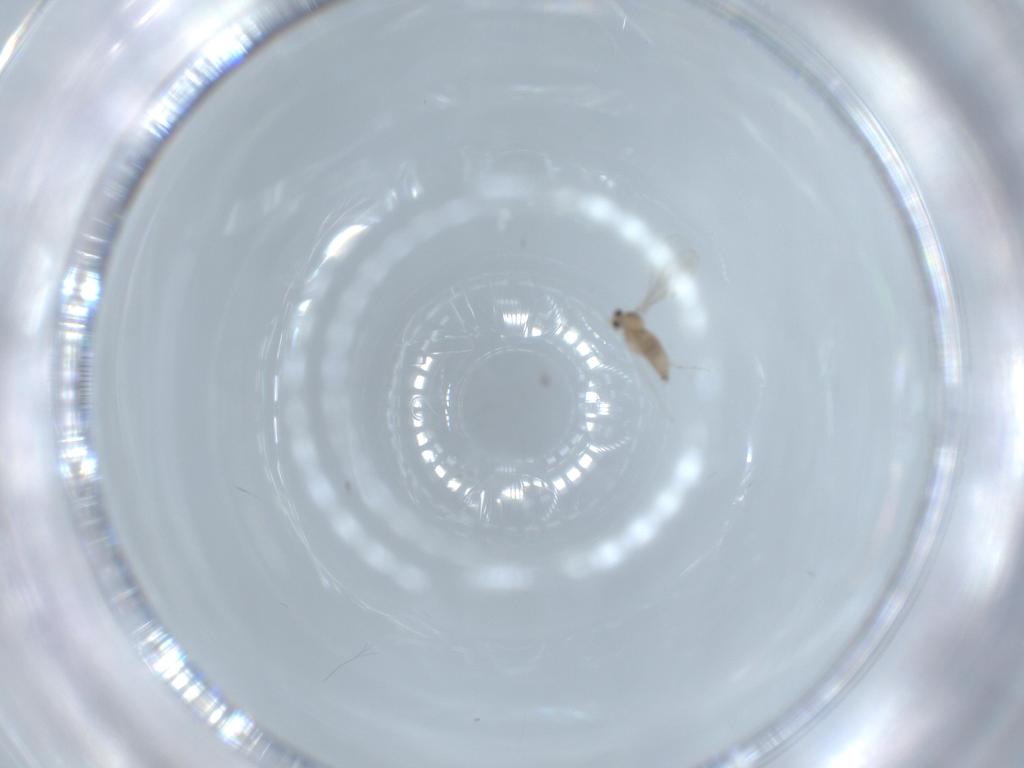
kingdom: Animalia
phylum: Arthropoda
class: Insecta
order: Diptera
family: Cecidomyiidae
